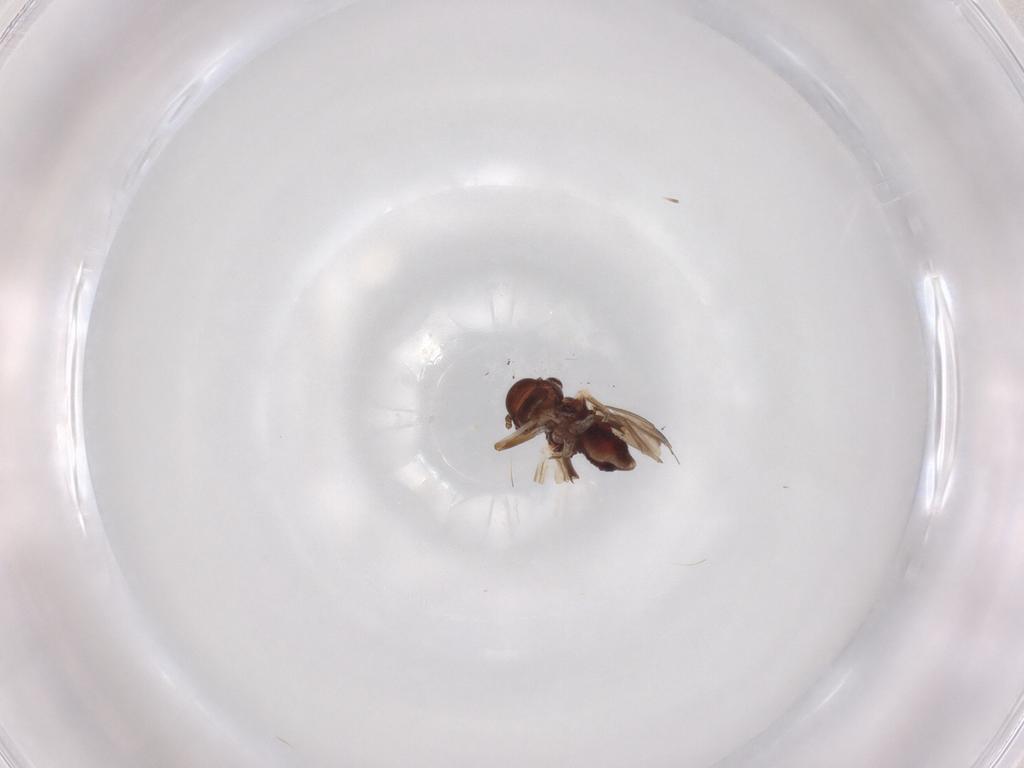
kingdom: Animalia
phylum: Arthropoda
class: Insecta
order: Psocodea
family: Caeciliusidae
